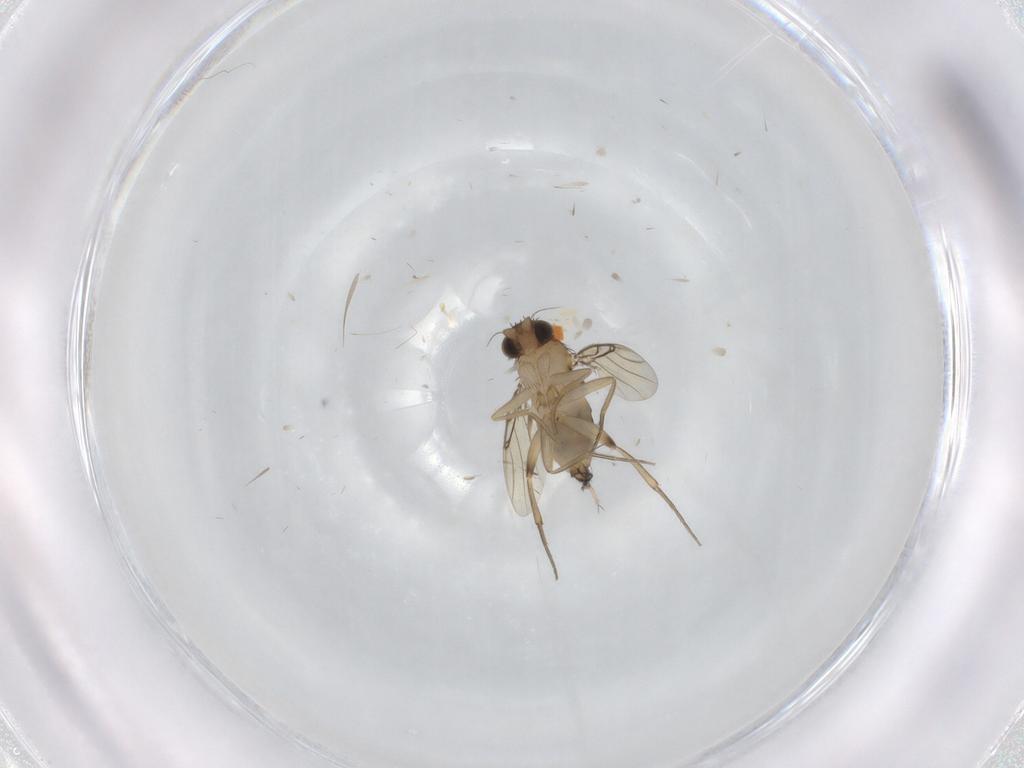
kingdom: Animalia
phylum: Arthropoda
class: Insecta
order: Diptera
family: Phoridae
